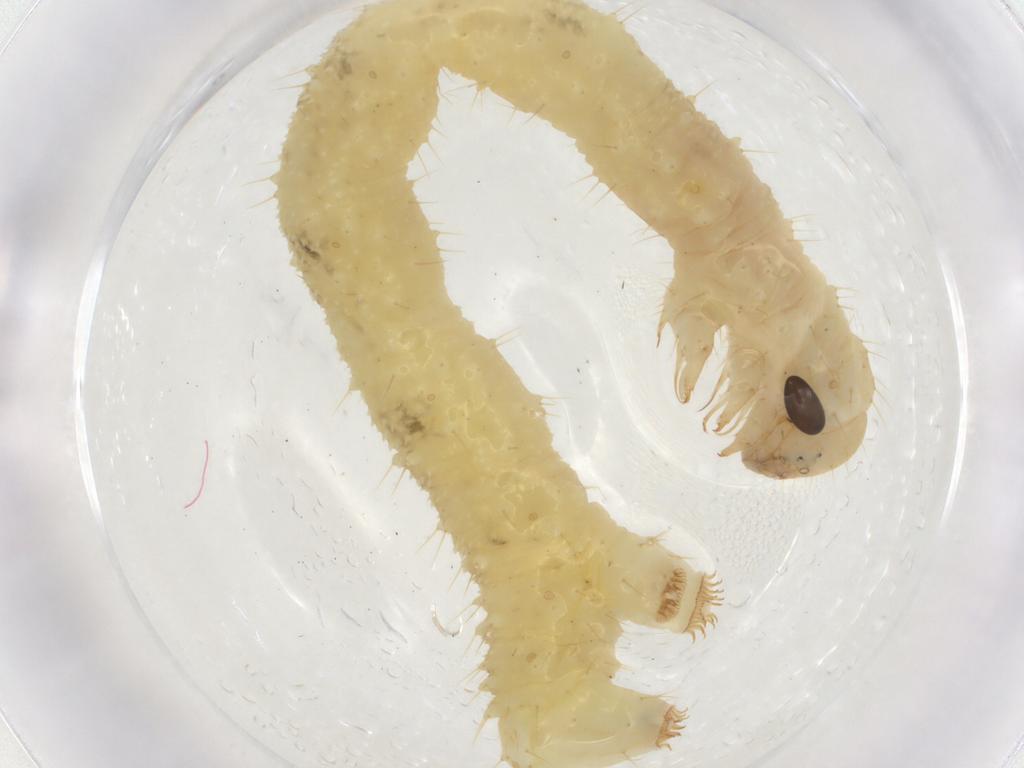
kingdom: Animalia
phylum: Arthropoda
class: Insecta
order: Lepidoptera
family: Geometridae
